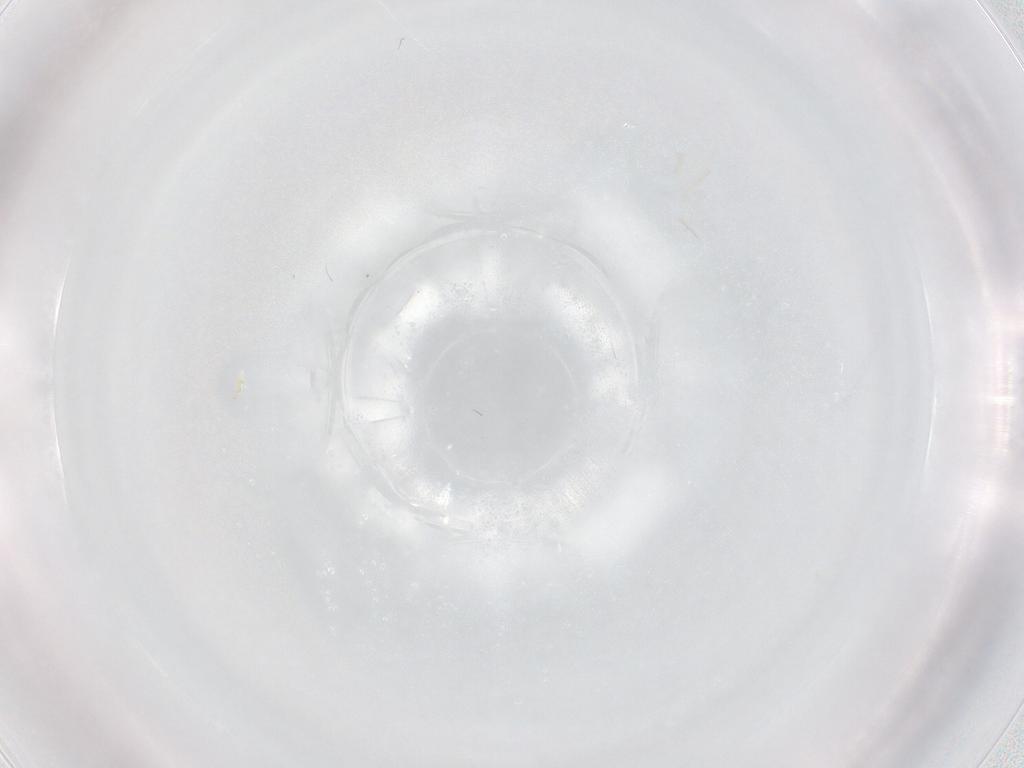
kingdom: Animalia
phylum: Arthropoda
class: Insecta
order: Diptera
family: Chironomidae
